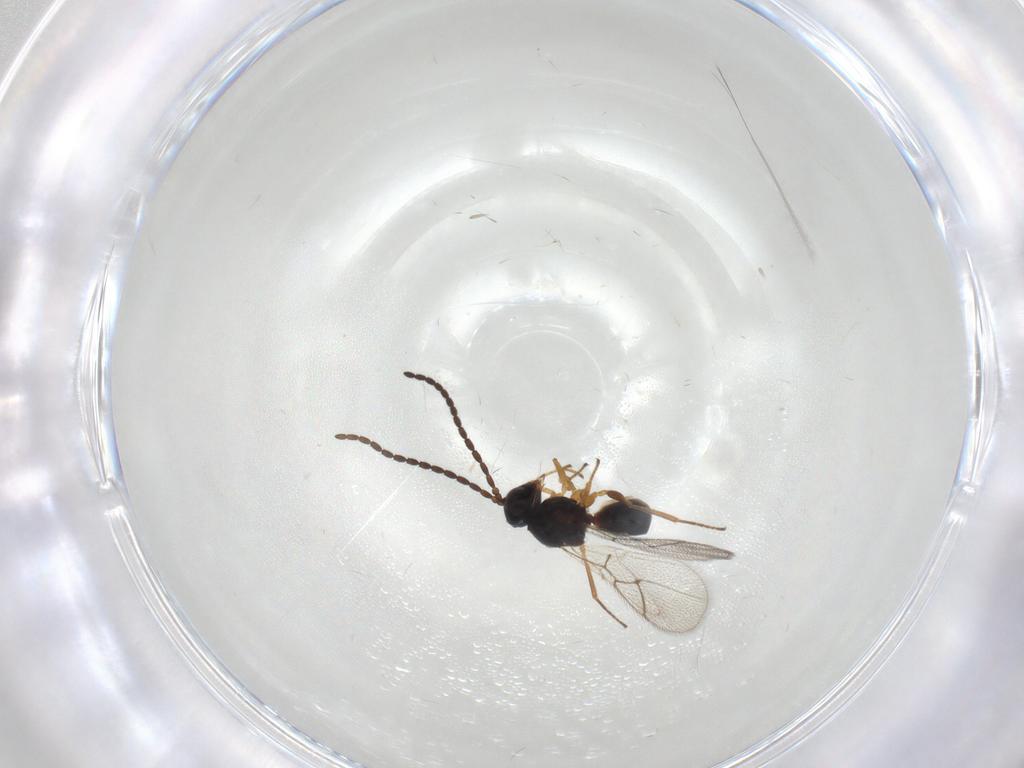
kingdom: Animalia
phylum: Arthropoda
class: Insecta
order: Hymenoptera
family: Figitidae
